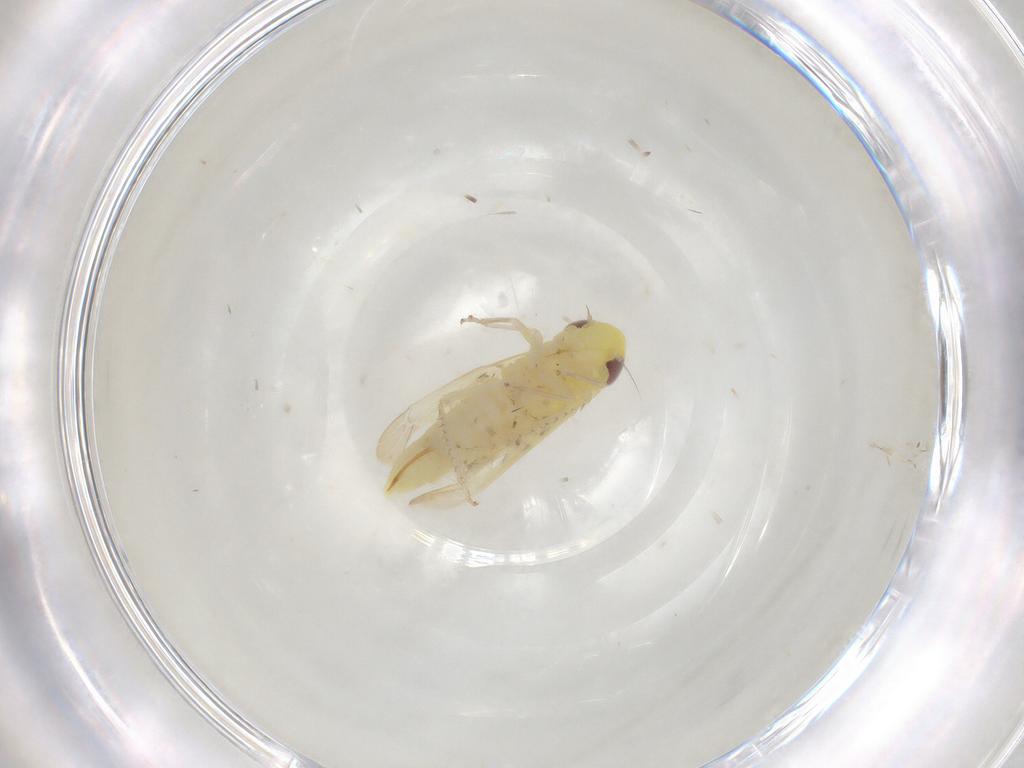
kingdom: Animalia
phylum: Arthropoda
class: Insecta
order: Hemiptera
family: Cicadellidae
